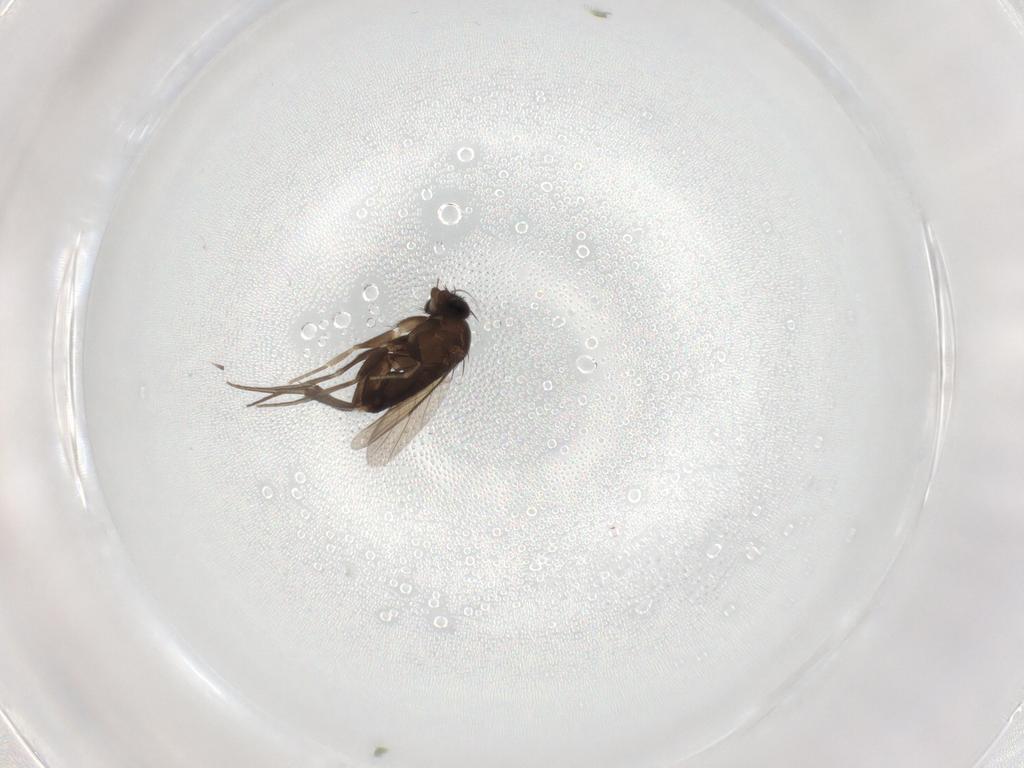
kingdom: Animalia
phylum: Arthropoda
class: Insecta
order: Diptera
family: Phoridae
